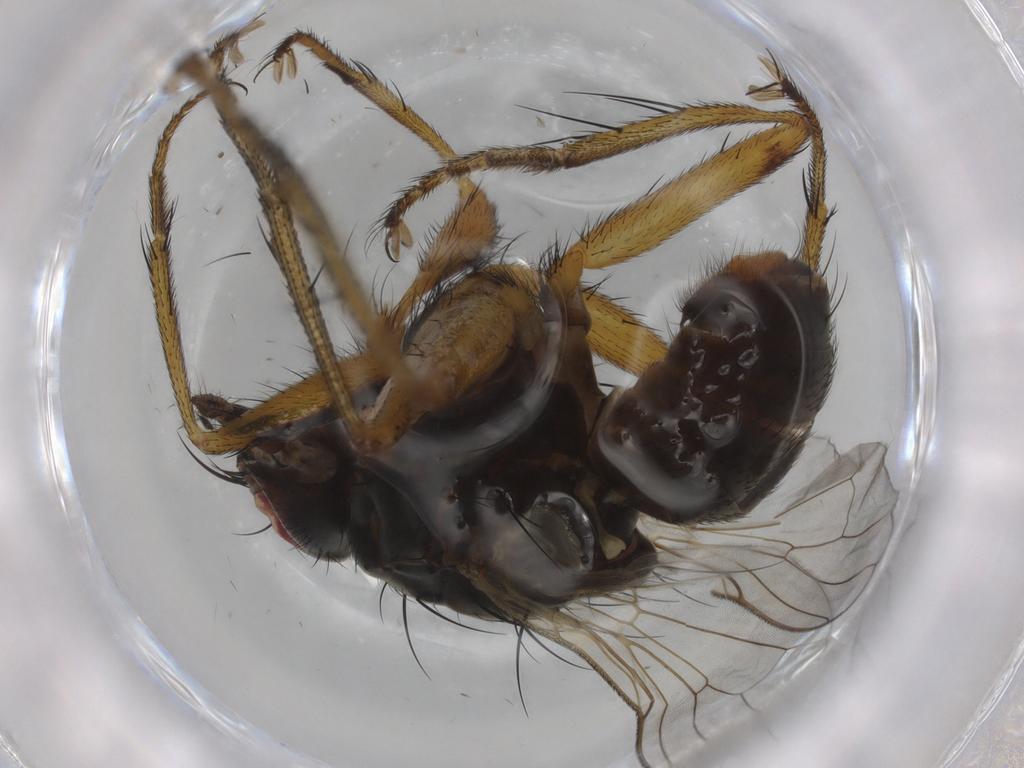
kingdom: Animalia
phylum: Arthropoda
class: Insecta
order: Diptera
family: Muscidae
